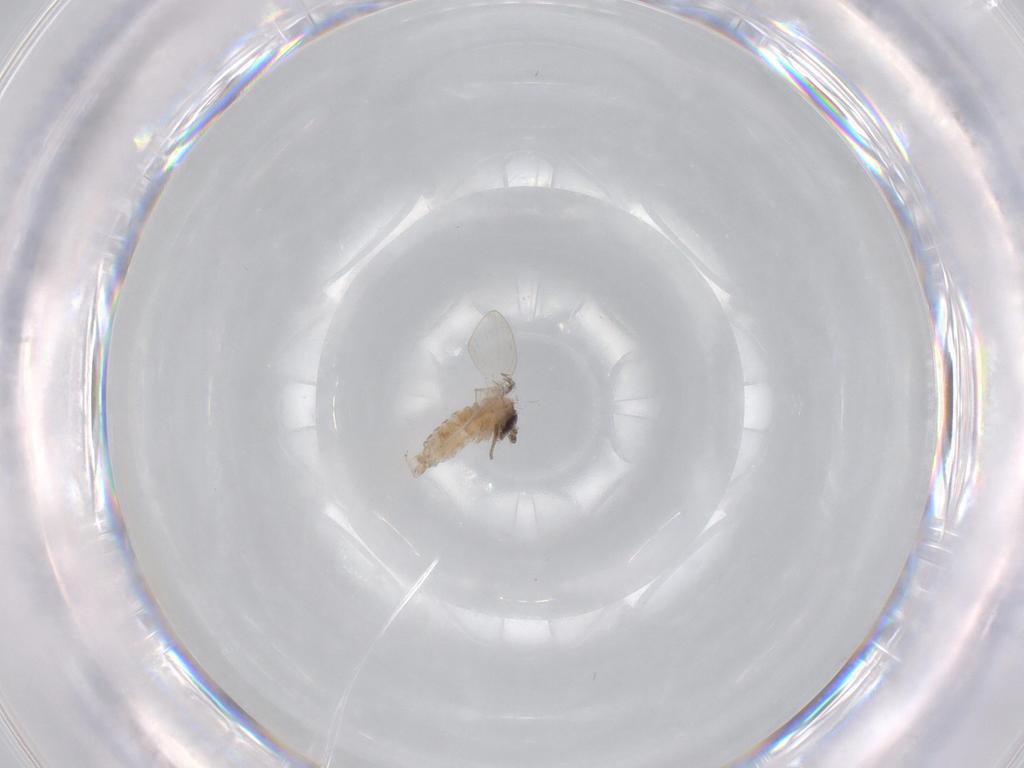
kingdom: Animalia
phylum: Arthropoda
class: Insecta
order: Diptera
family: Psychodidae
